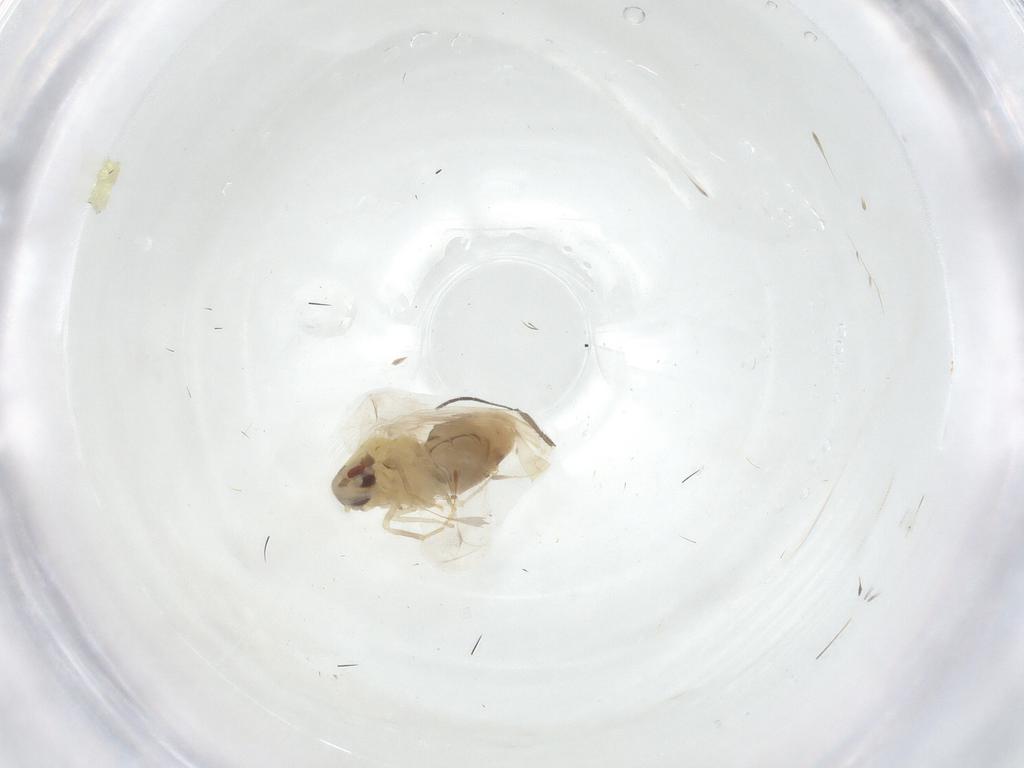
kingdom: Animalia
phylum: Arthropoda
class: Insecta
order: Hemiptera
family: Aleyrodidae
